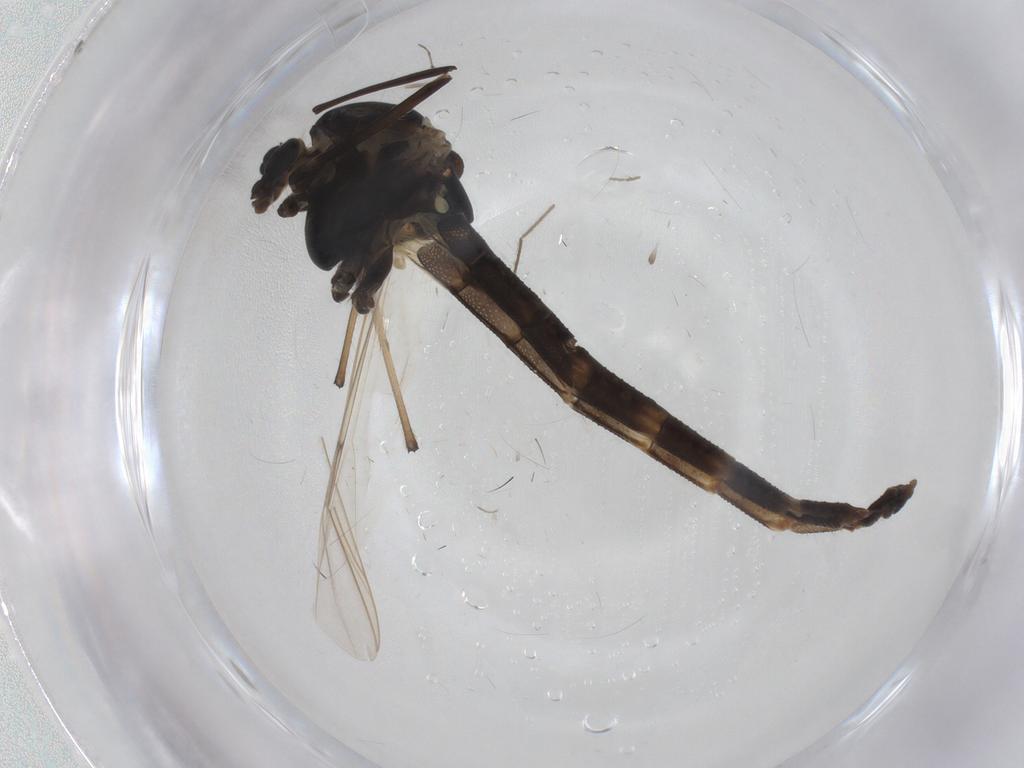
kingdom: Animalia
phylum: Arthropoda
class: Insecta
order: Diptera
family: Chironomidae
